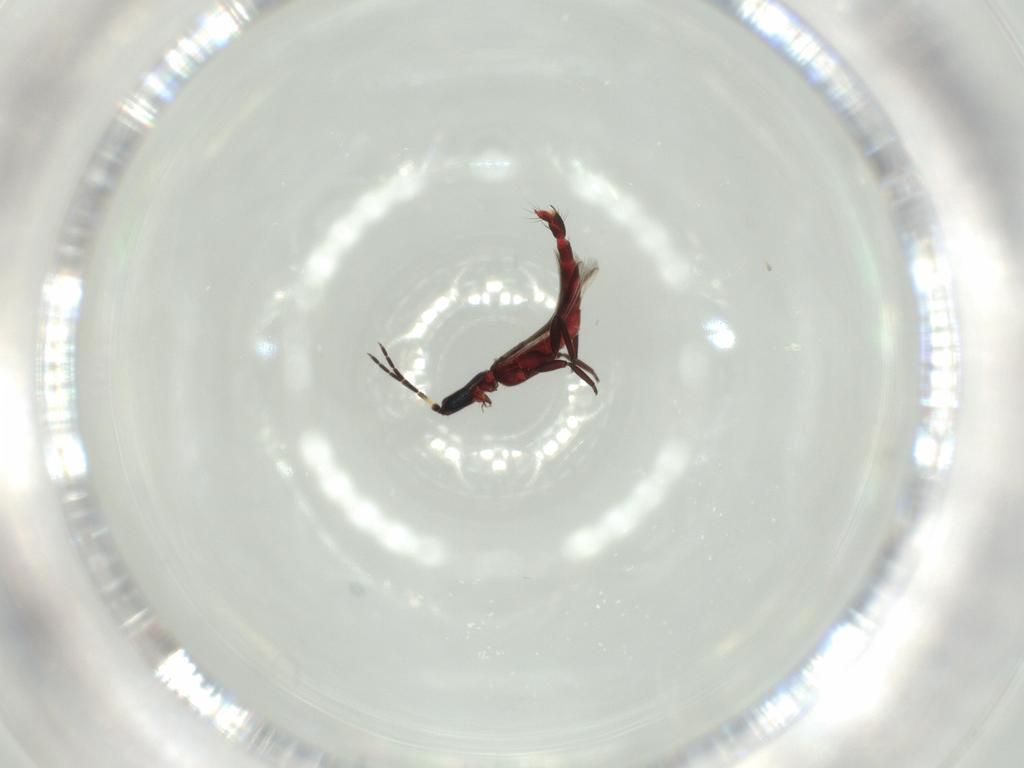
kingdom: Animalia
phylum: Arthropoda
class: Insecta
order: Thysanoptera
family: Aeolothripidae
